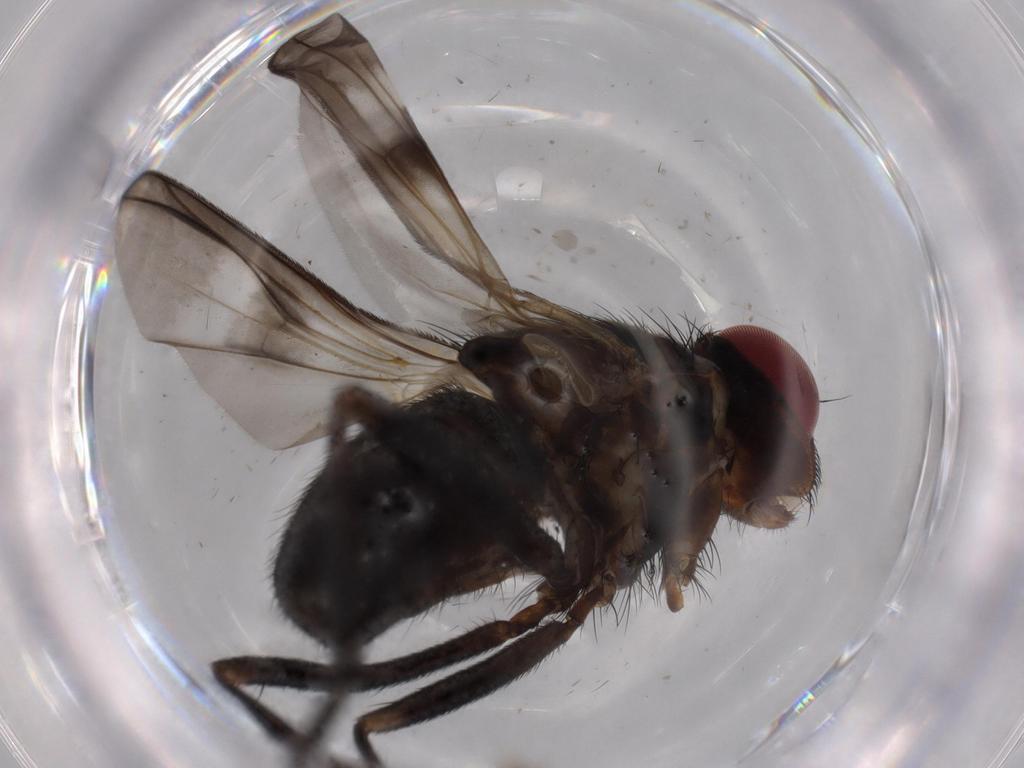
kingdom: Animalia
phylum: Arthropoda
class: Insecta
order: Diptera
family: Calliphoridae
